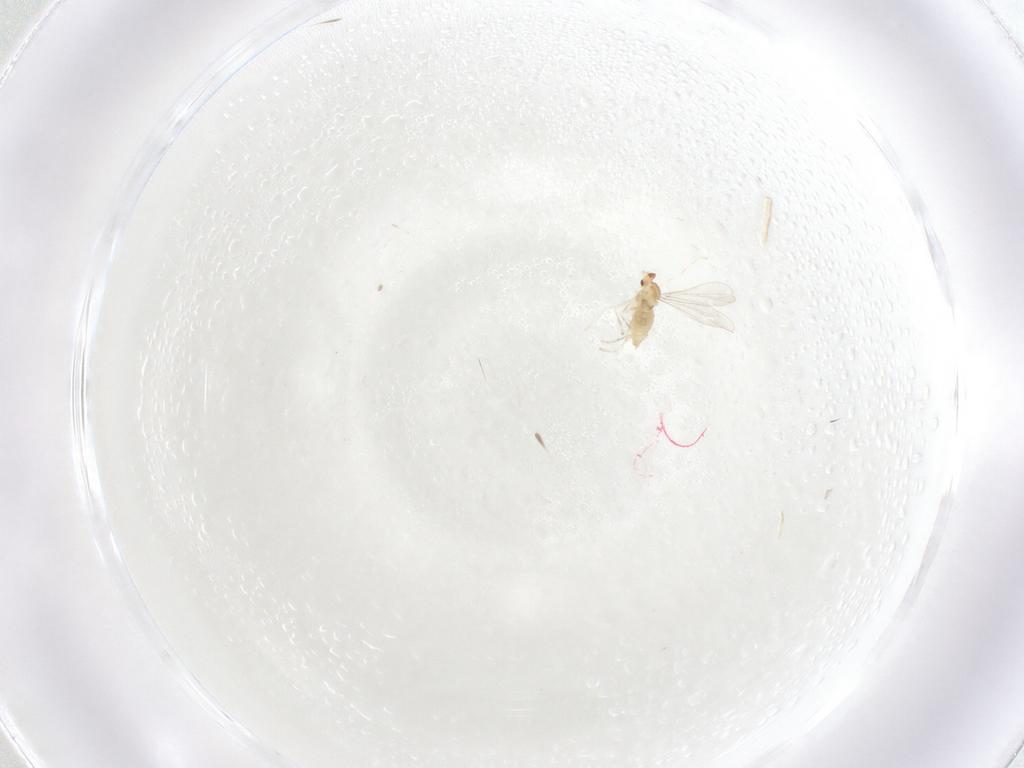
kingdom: Animalia
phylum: Arthropoda
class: Insecta
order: Diptera
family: Cecidomyiidae
